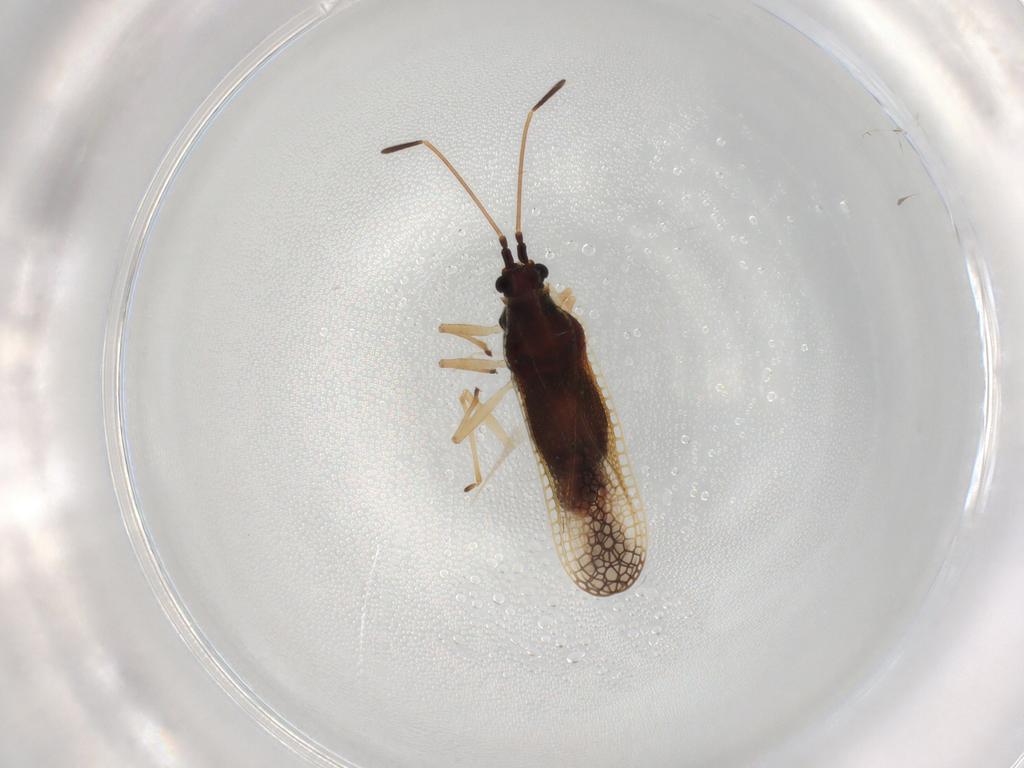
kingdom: Animalia
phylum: Arthropoda
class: Insecta
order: Hemiptera
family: Tingidae
